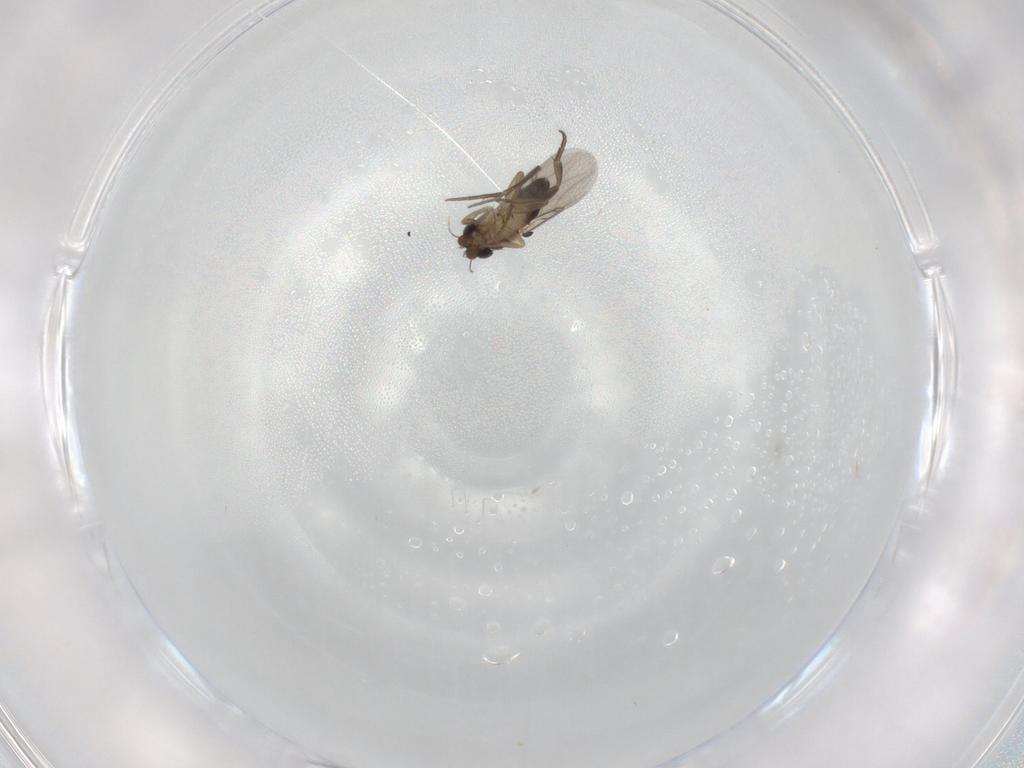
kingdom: Animalia
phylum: Arthropoda
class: Insecta
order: Diptera
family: Phoridae
